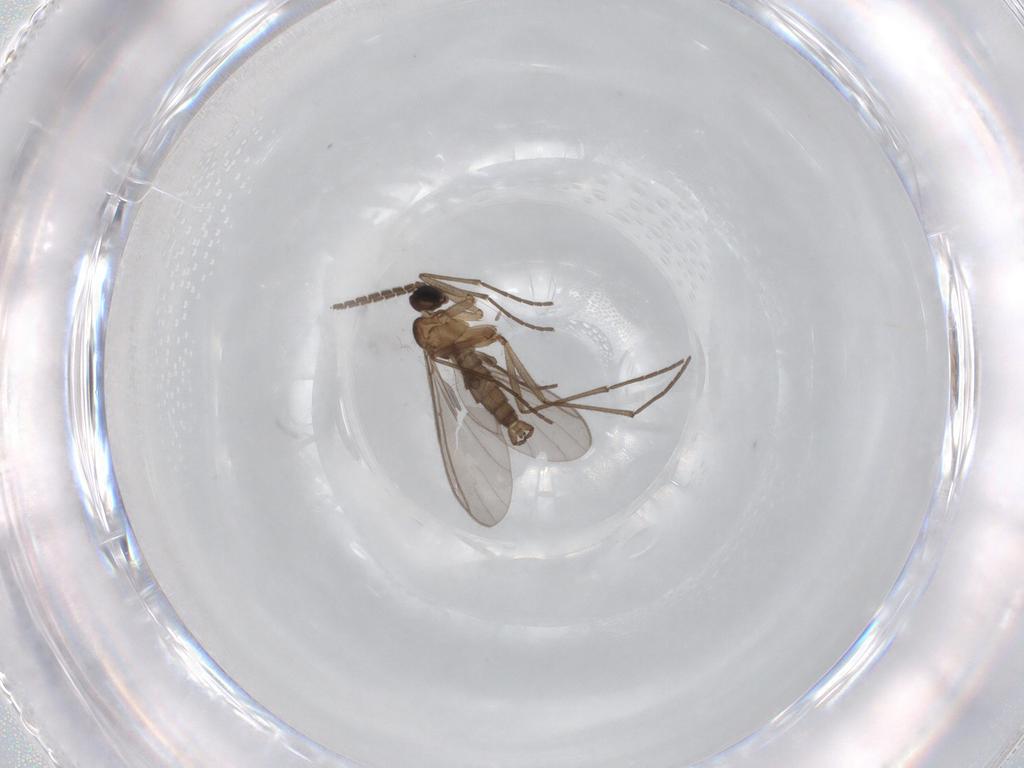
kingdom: Animalia
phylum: Arthropoda
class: Insecta
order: Diptera
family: Sciaridae
